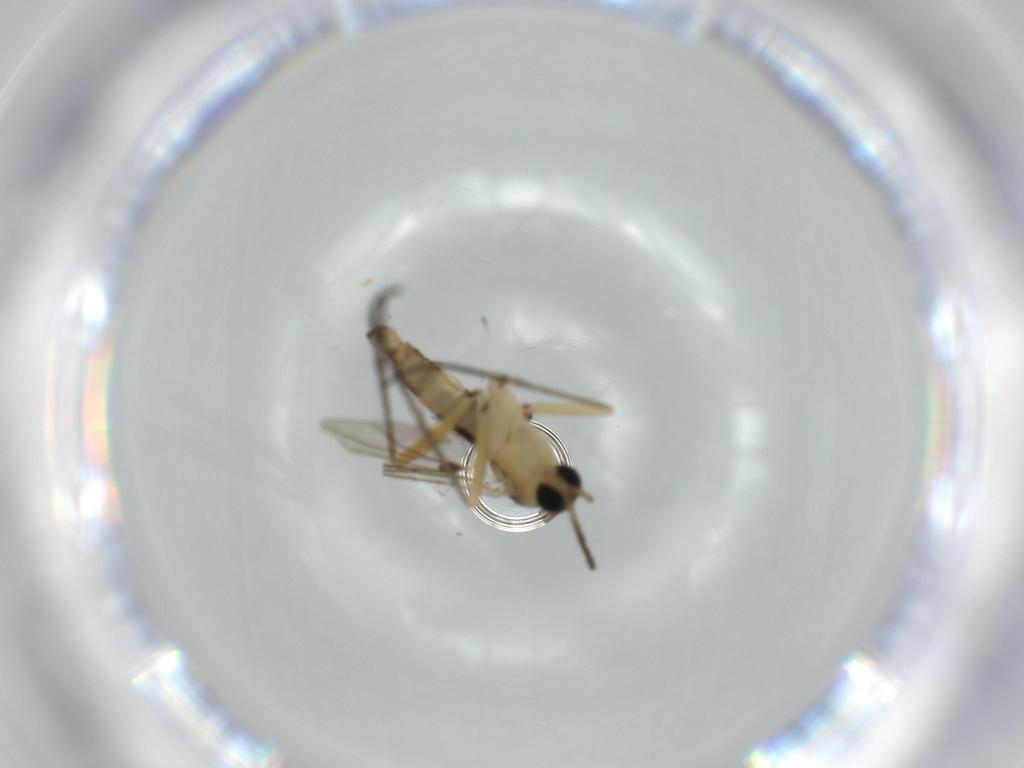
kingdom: Animalia
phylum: Arthropoda
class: Insecta
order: Diptera
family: Sciaridae
